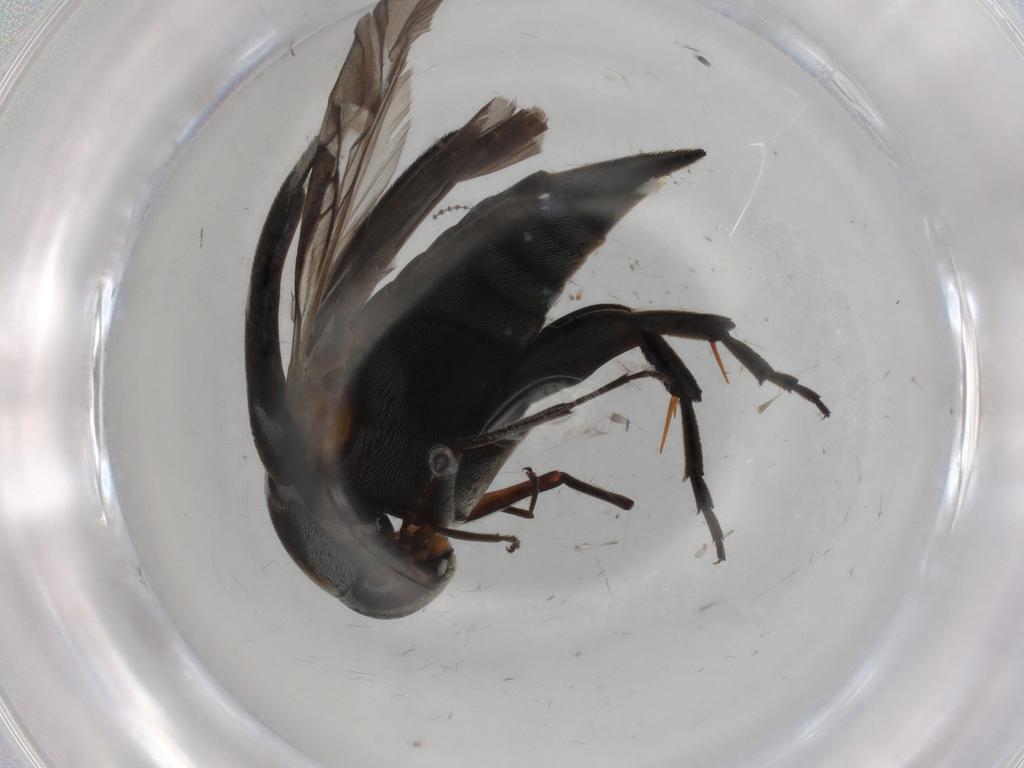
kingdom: Animalia
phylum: Arthropoda
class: Insecta
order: Coleoptera
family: Mordellidae
